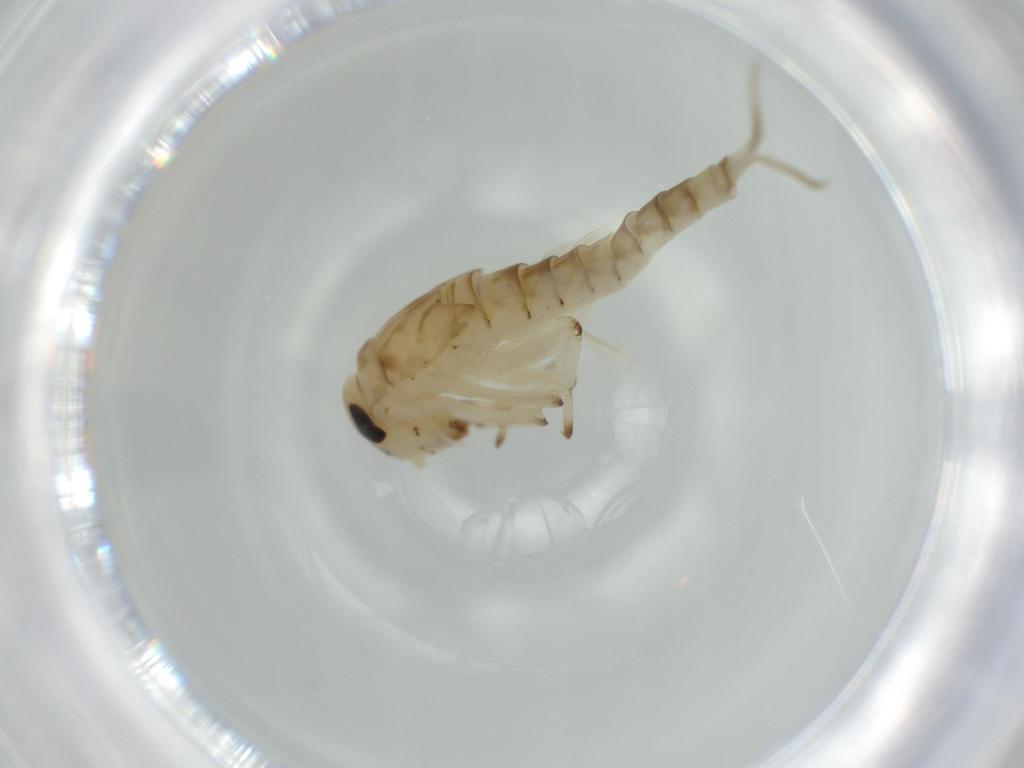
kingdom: Animalia
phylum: Arthropoda
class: Insecta
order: Ephemeroptera
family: Baetidae
